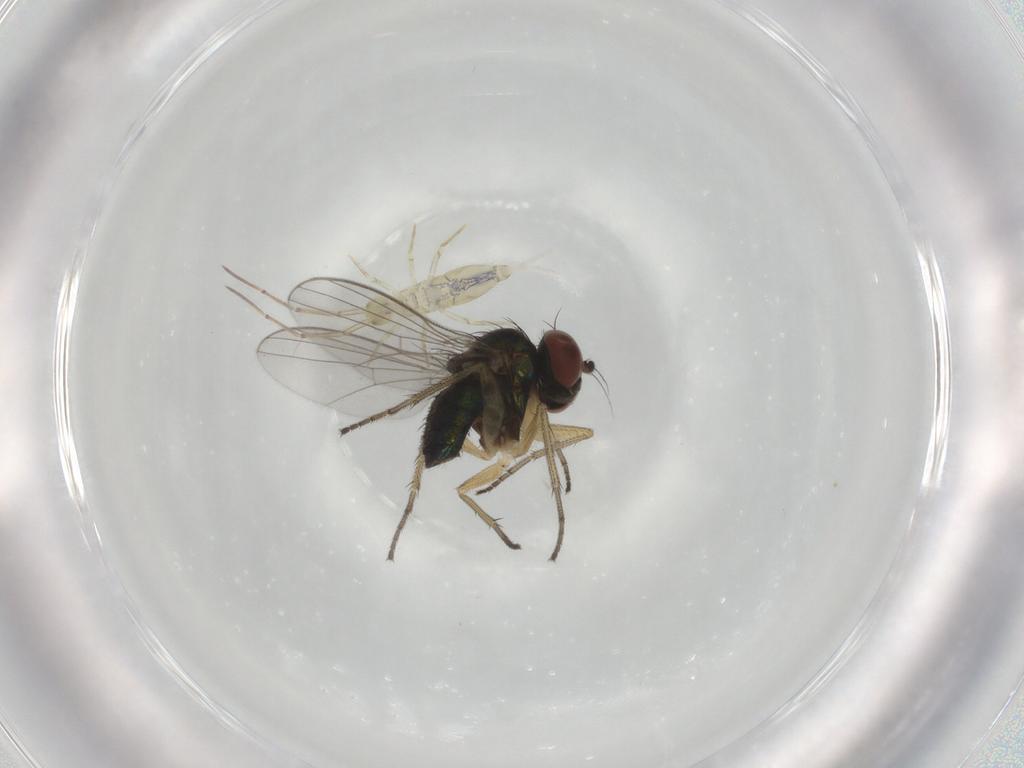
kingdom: Animalia
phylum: Arthropoda
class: Insecta
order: Diptera
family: Ceratopogonidae
